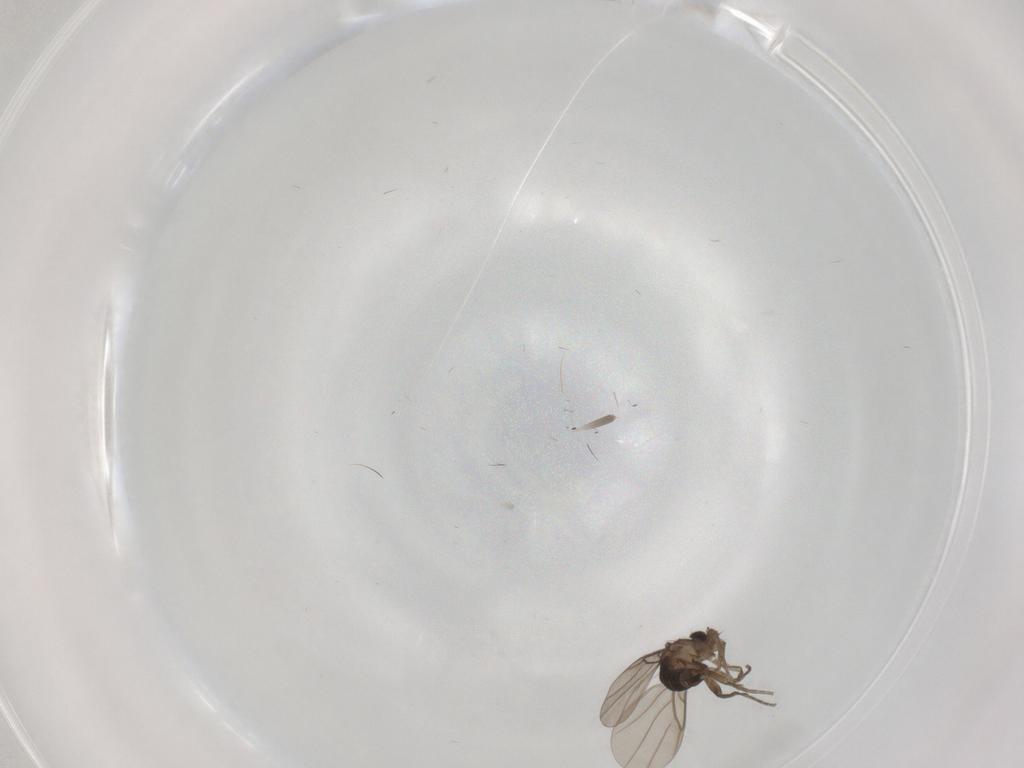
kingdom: Animalia
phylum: Arthropoda
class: Insecta
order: Diptera
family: Phoridae
